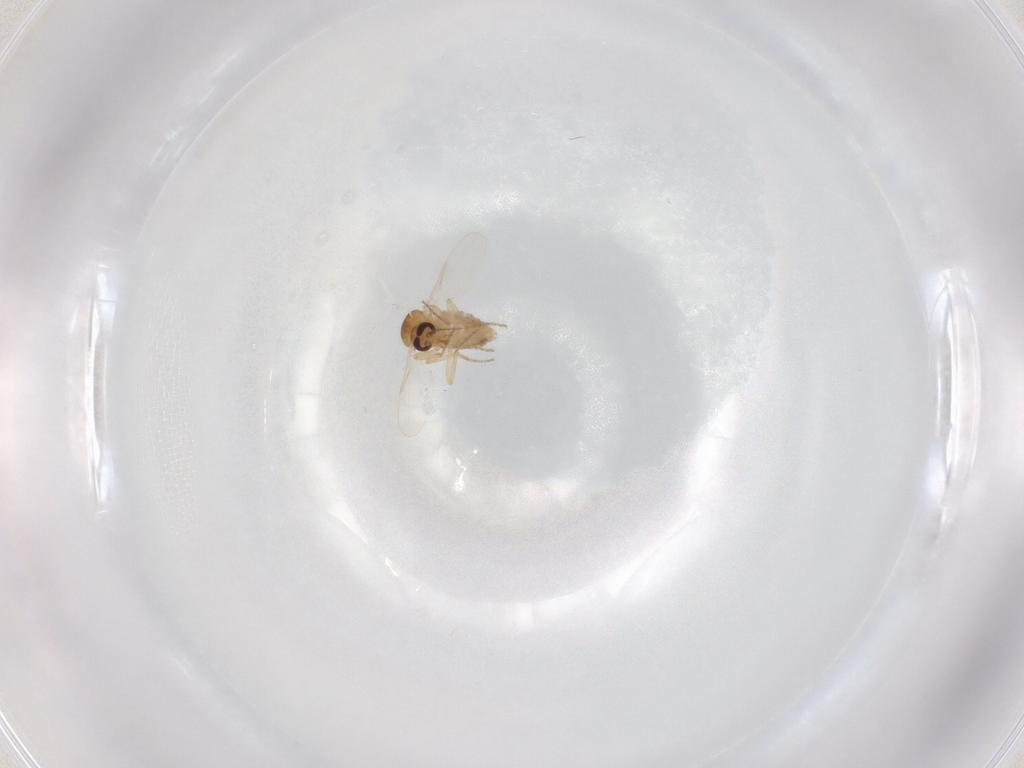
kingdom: Animalia
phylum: Arthropoda
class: Insecta
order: Diptera
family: Ceratopogonidae
